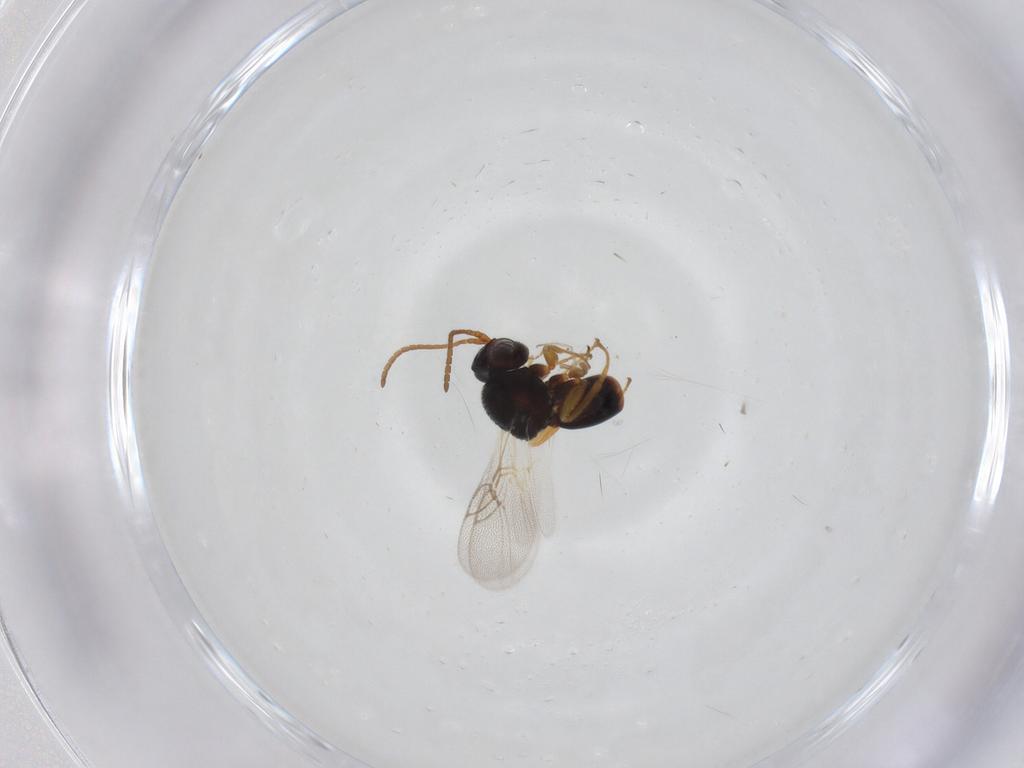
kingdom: Animalia
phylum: Arthropoda
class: Insecta
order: Hymenoptera
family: Cynipidae
